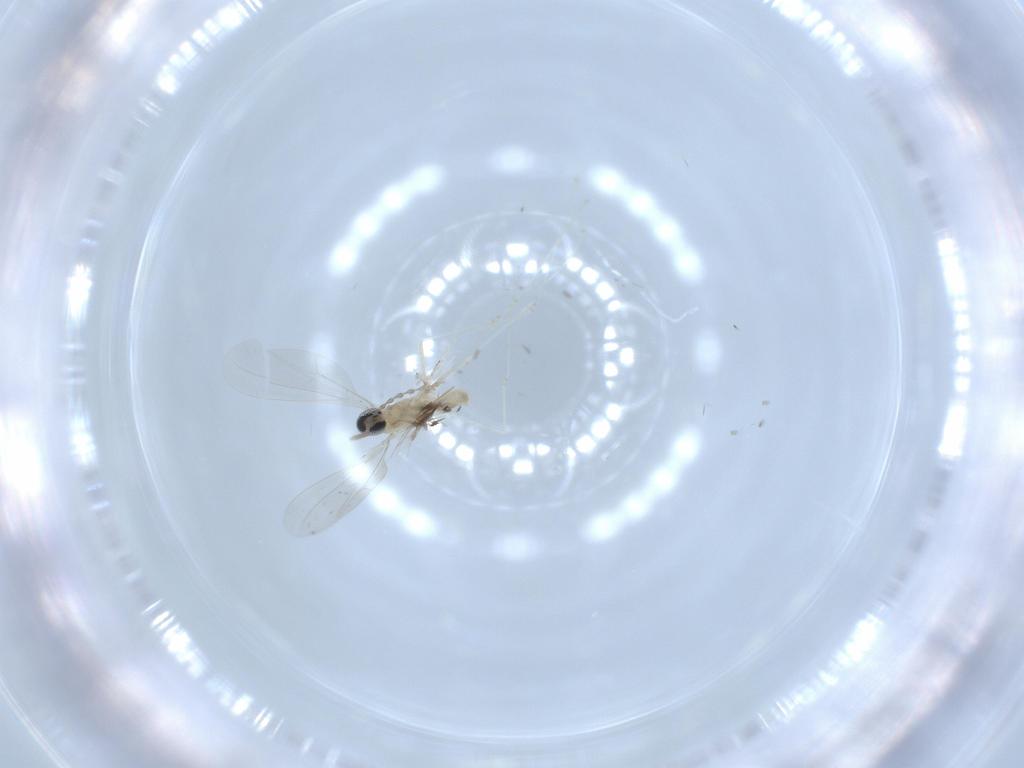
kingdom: Animalia
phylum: Arthropoda
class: Insecta
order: Diptera
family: Cecidomyiidae
